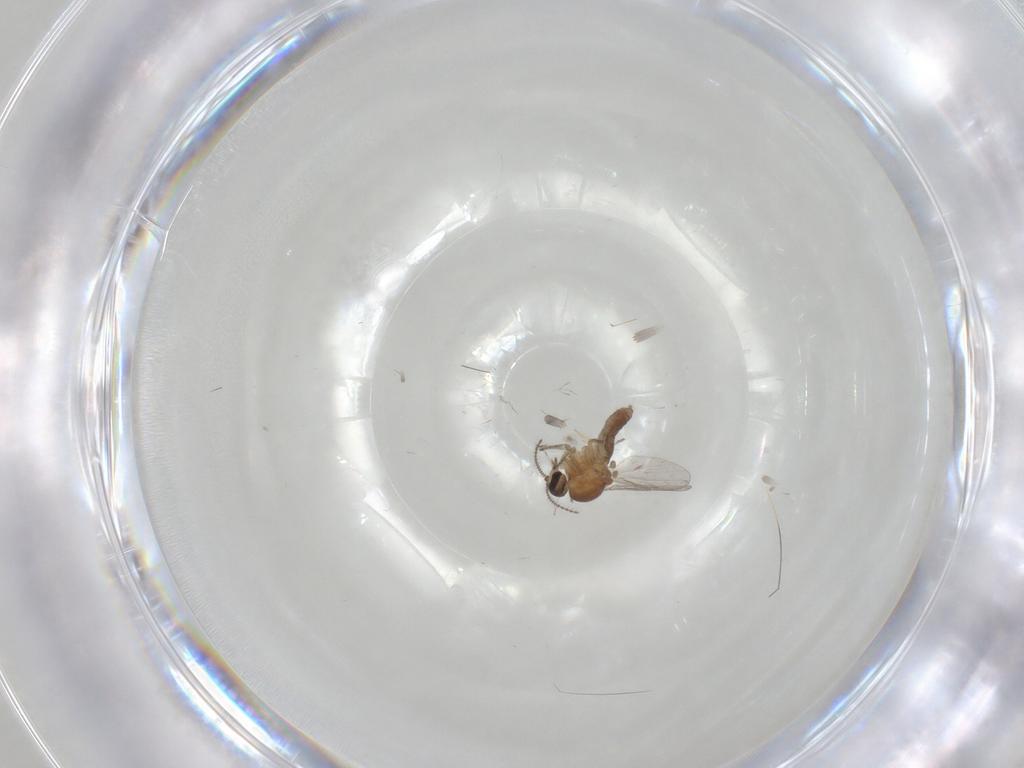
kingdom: Animalia
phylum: Arthropoda
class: Insecta
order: Diptera
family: Ceratopogonidae
